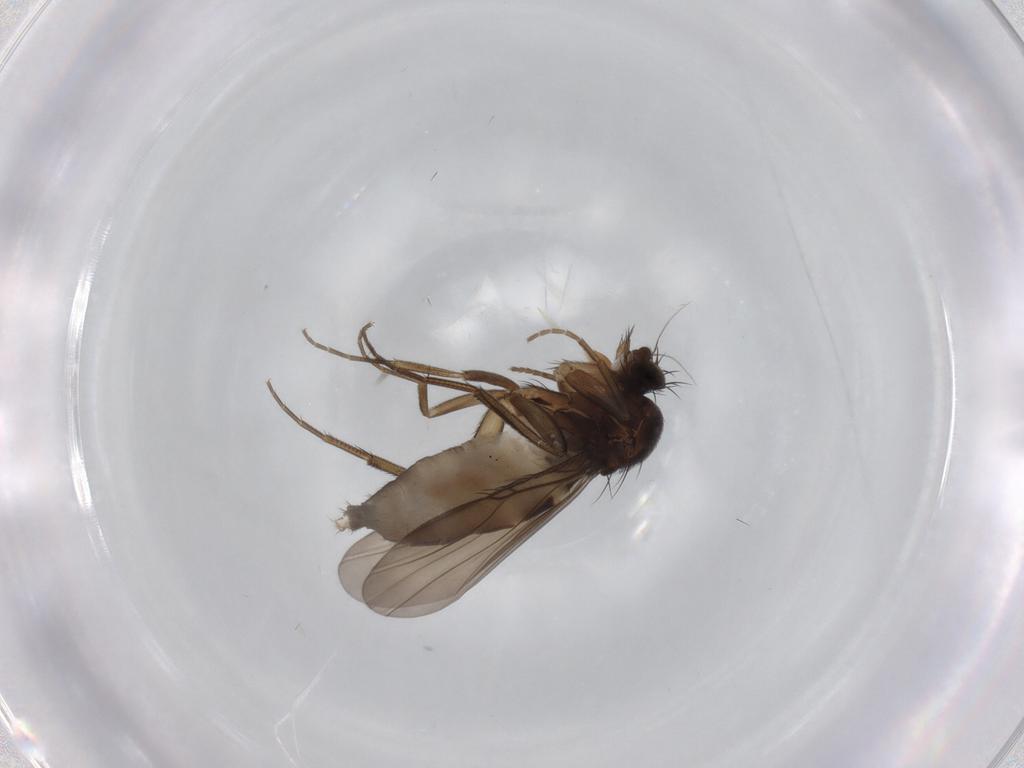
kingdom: Animalia
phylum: Arthropoda
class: Insecta
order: Diptera
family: Phoridae
